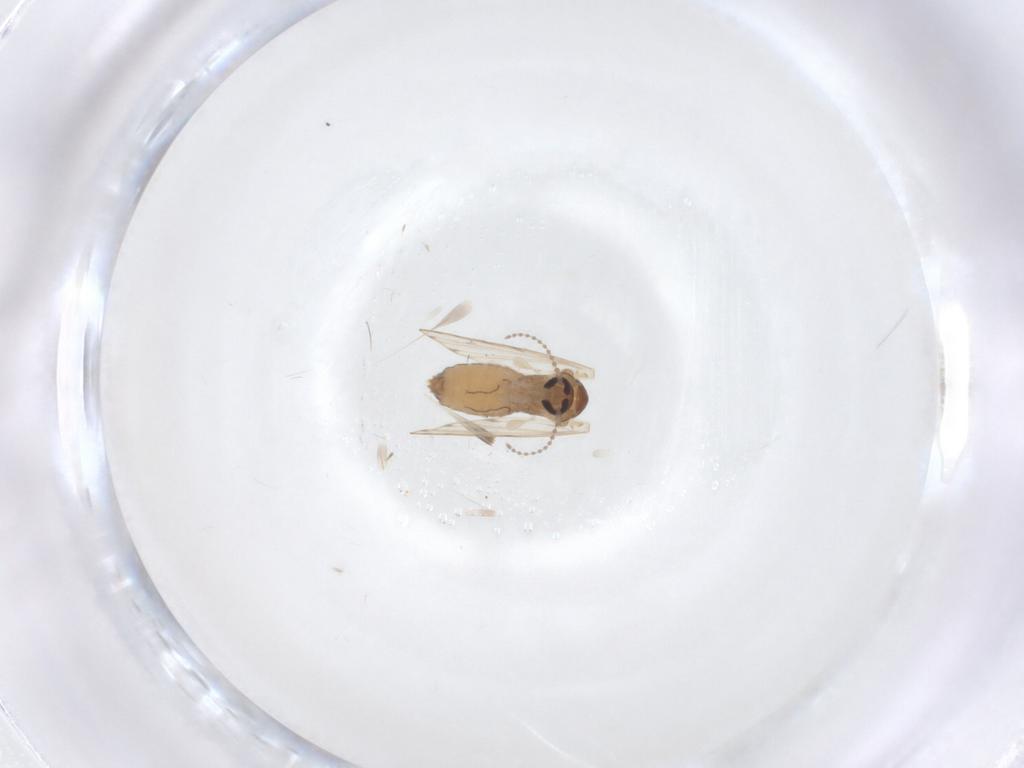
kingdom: Animalia
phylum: Arthropoda
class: Insecta
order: Diptera
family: Psychodidae
